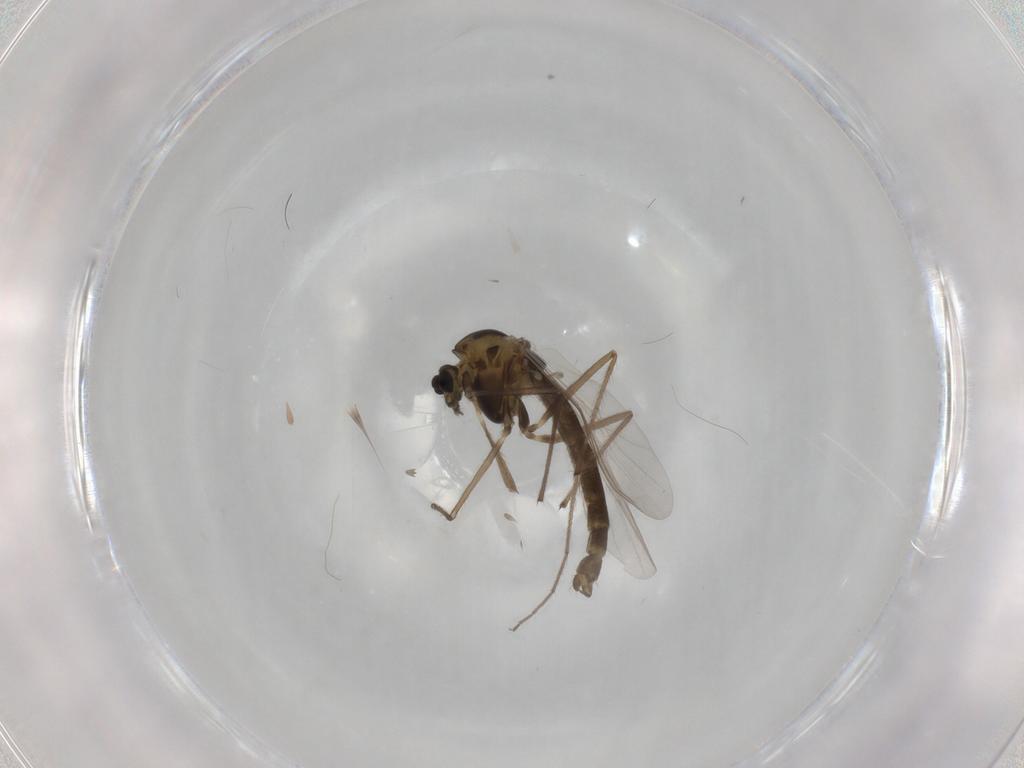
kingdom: Animalia
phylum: Arthropoda
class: Insecta
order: Diptera
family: Chironomidae
